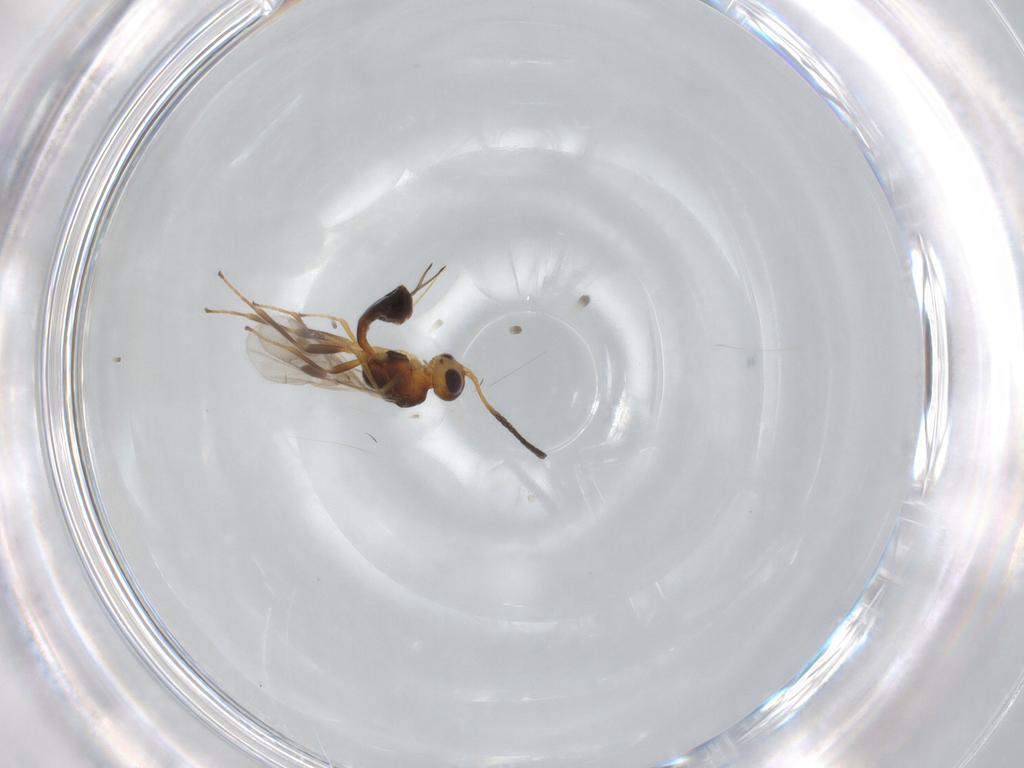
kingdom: Animalia
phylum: Arthropoda
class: Insecta
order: Hymenoptera
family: Braconidae
